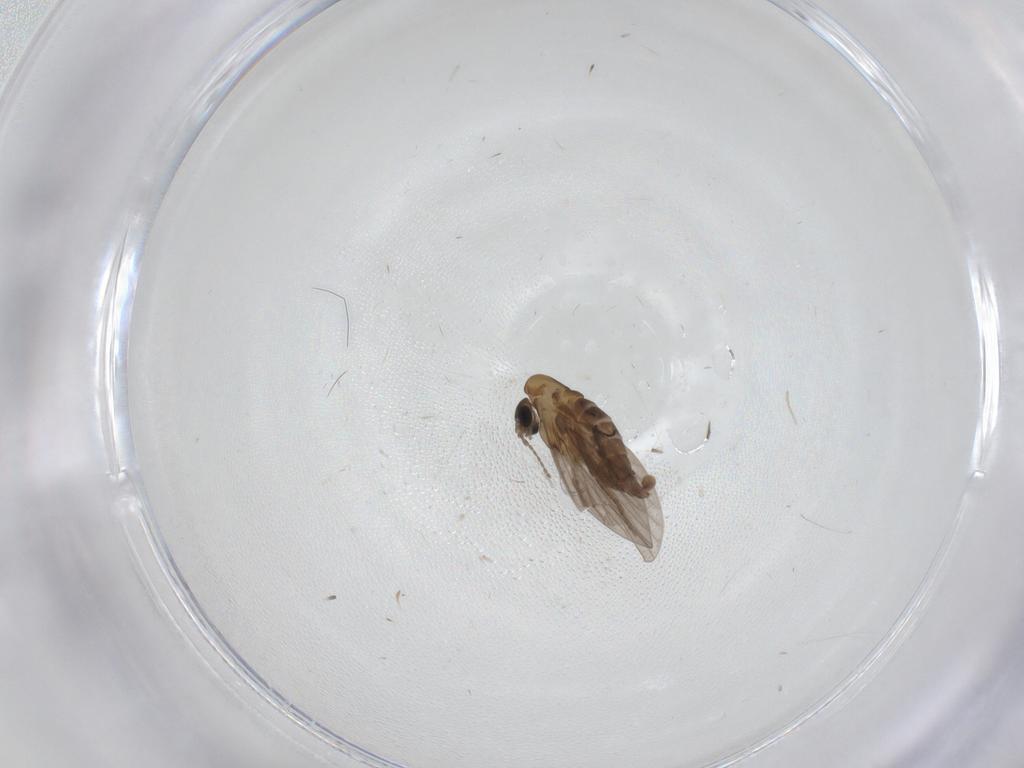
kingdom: Animalia
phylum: Arthropoda
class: Insecta
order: Diptera
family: Cecidomyiidae
